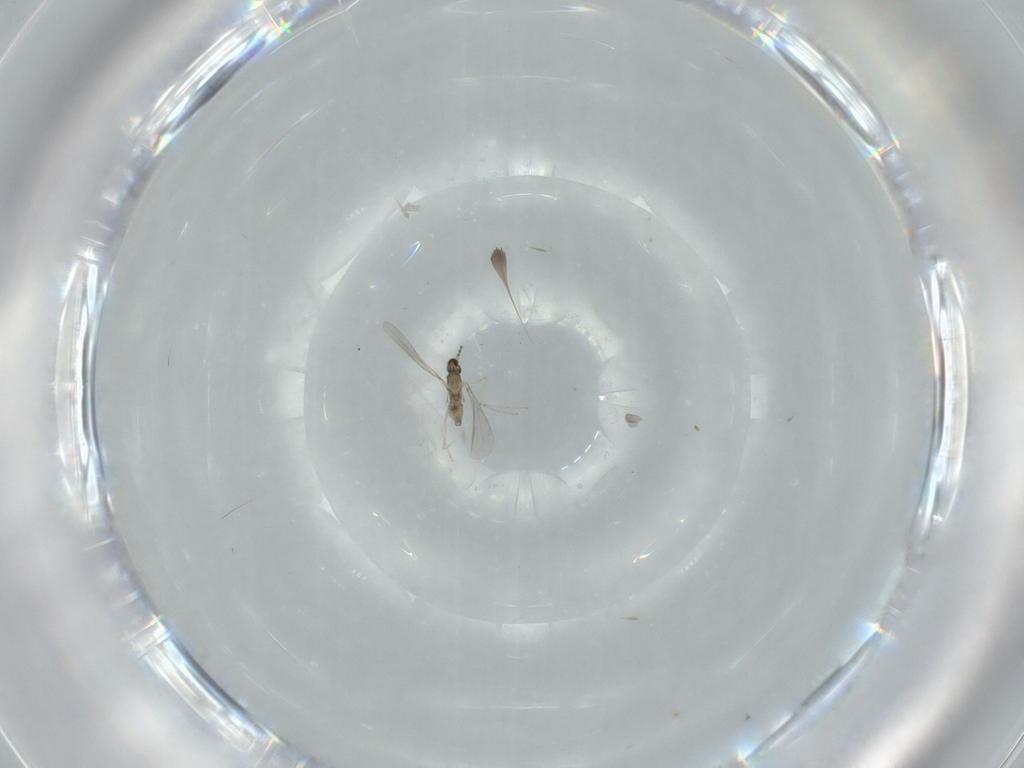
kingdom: Animalia
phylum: Arthropoda
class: Insecta
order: Diptera
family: Cecidomyiidae
